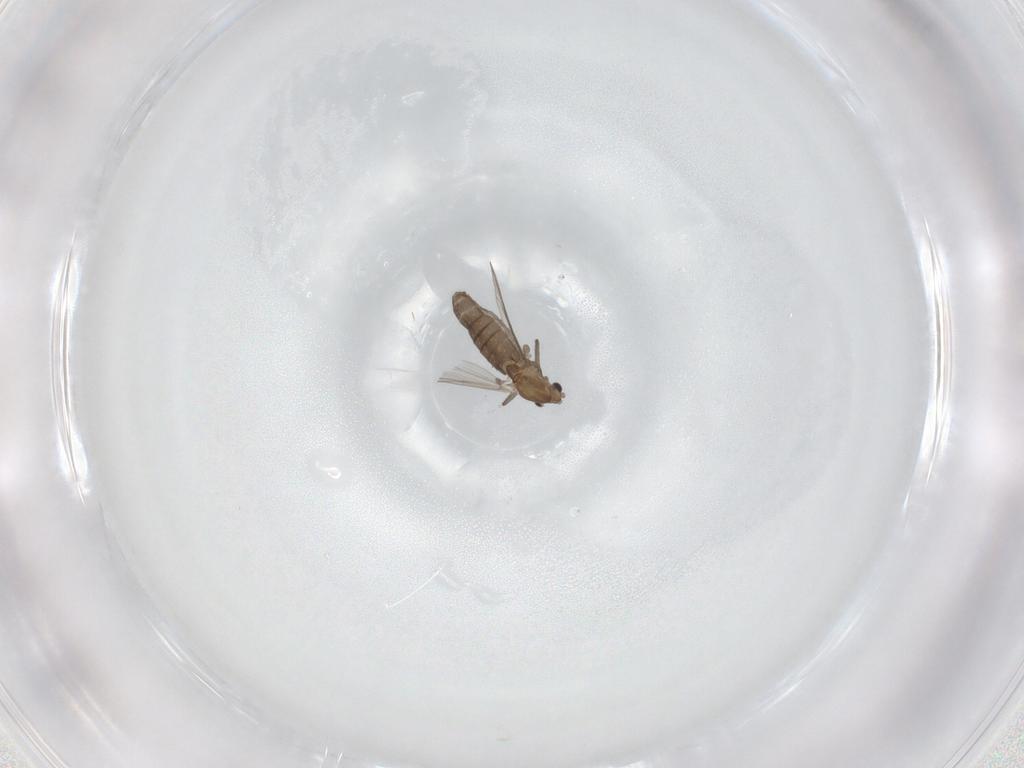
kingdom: Animalia
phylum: Arthropoda
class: Insecta
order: Diptera
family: Chironomidae
